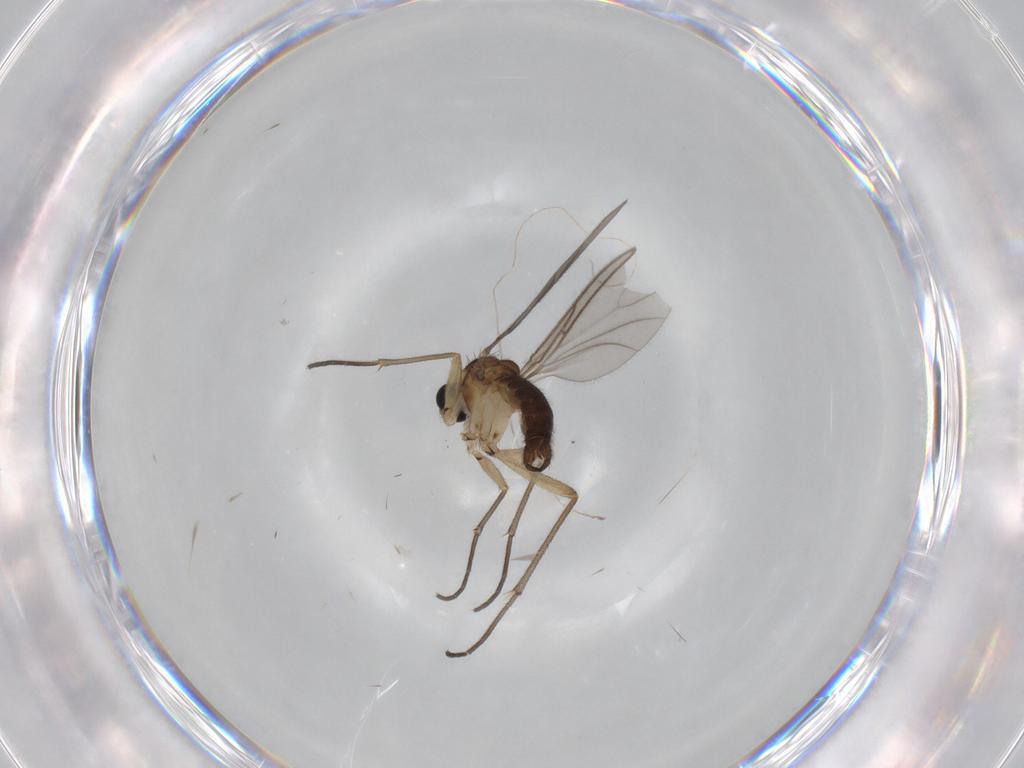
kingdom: Animalia
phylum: Arthropoda
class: Insecta
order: Diptera
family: Sciaridae
